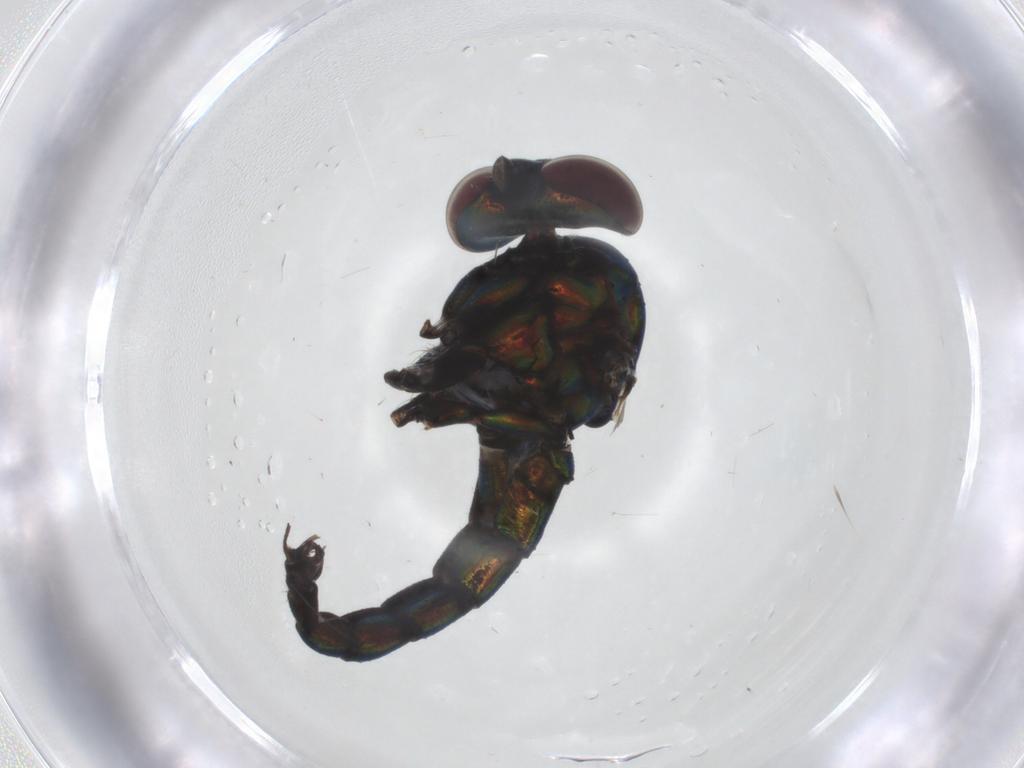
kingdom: Animalia
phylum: Arthropoda
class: Insecta
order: Diptera
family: Dolichopodidae
